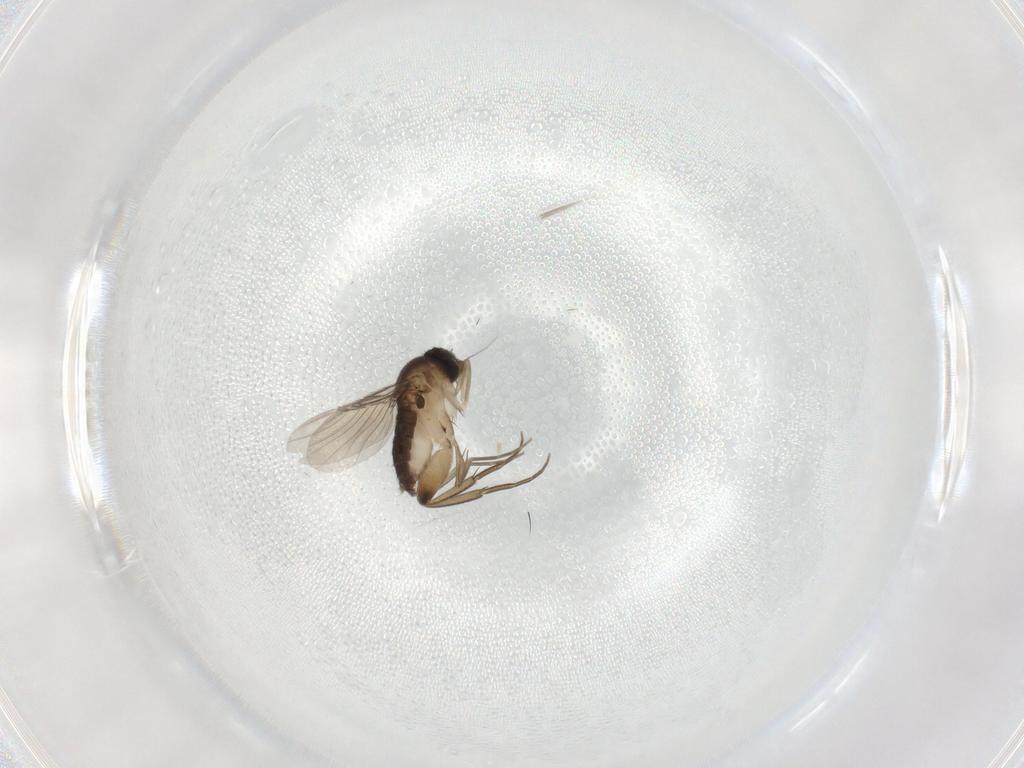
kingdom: Animalia
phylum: Arthropoda
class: Insecta
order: Diptera
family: Phoridae
